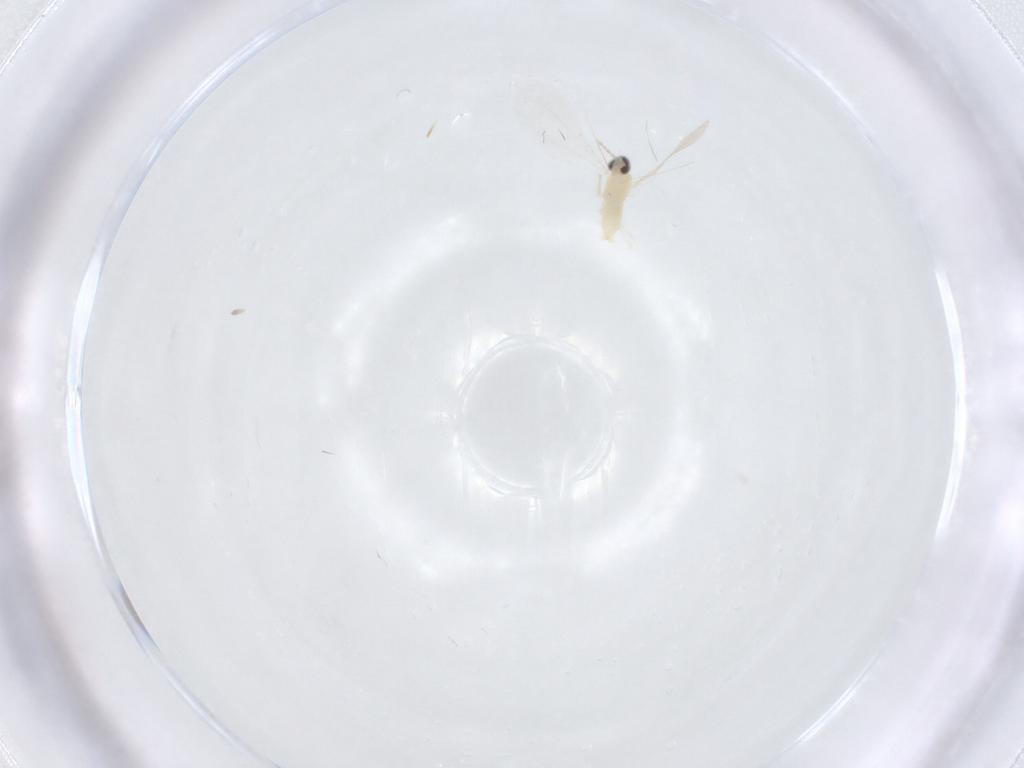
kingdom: Animalia
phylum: Arthropoda
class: Insecta
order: Diptera
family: Cecidomyiidae
